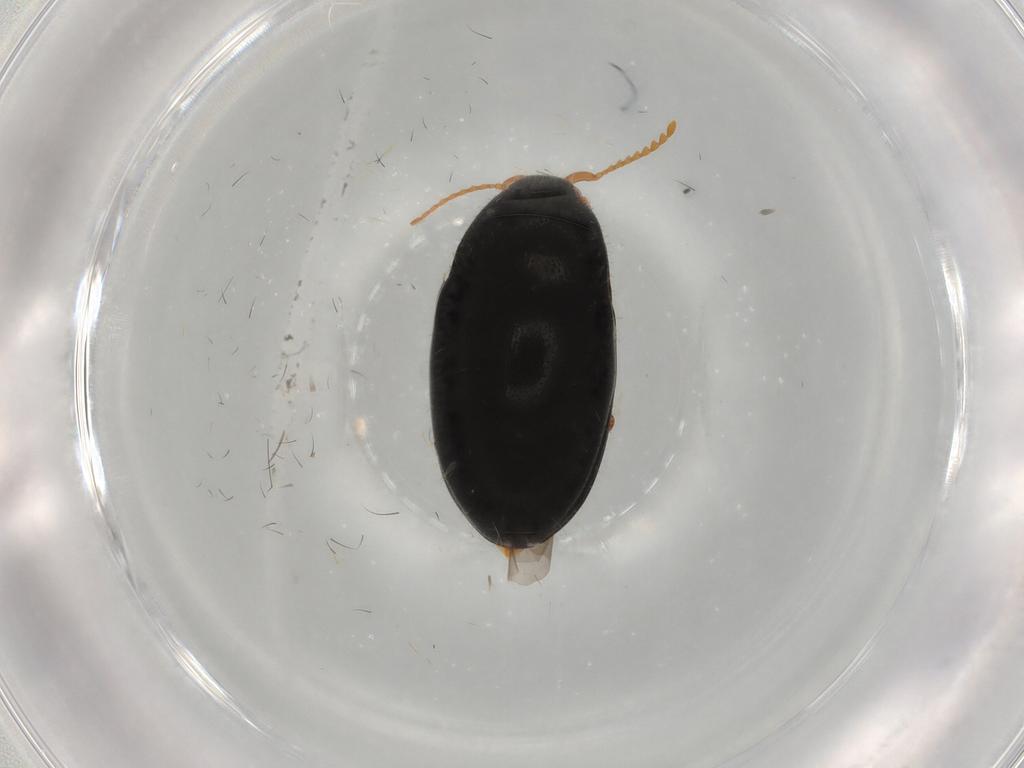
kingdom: Animalia
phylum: Arthropoda
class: Insecta
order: Coleoptera
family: Elateridae
